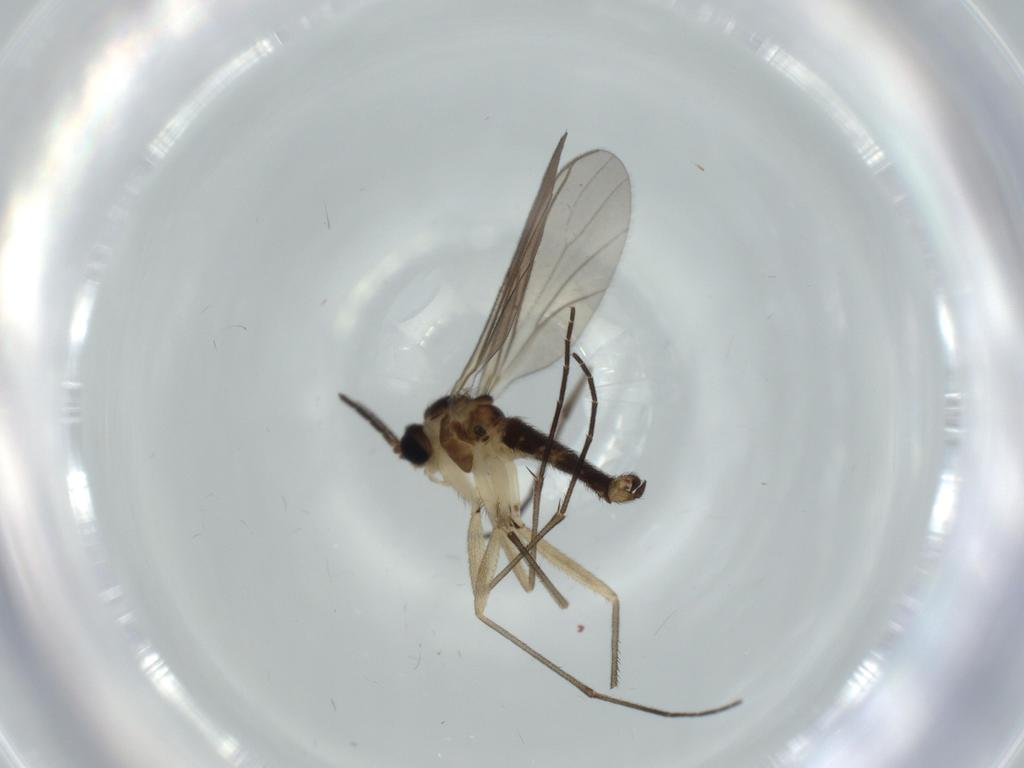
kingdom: Animalia
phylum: Arthropoda
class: Insecta
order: Diptera
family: Sciaridae
